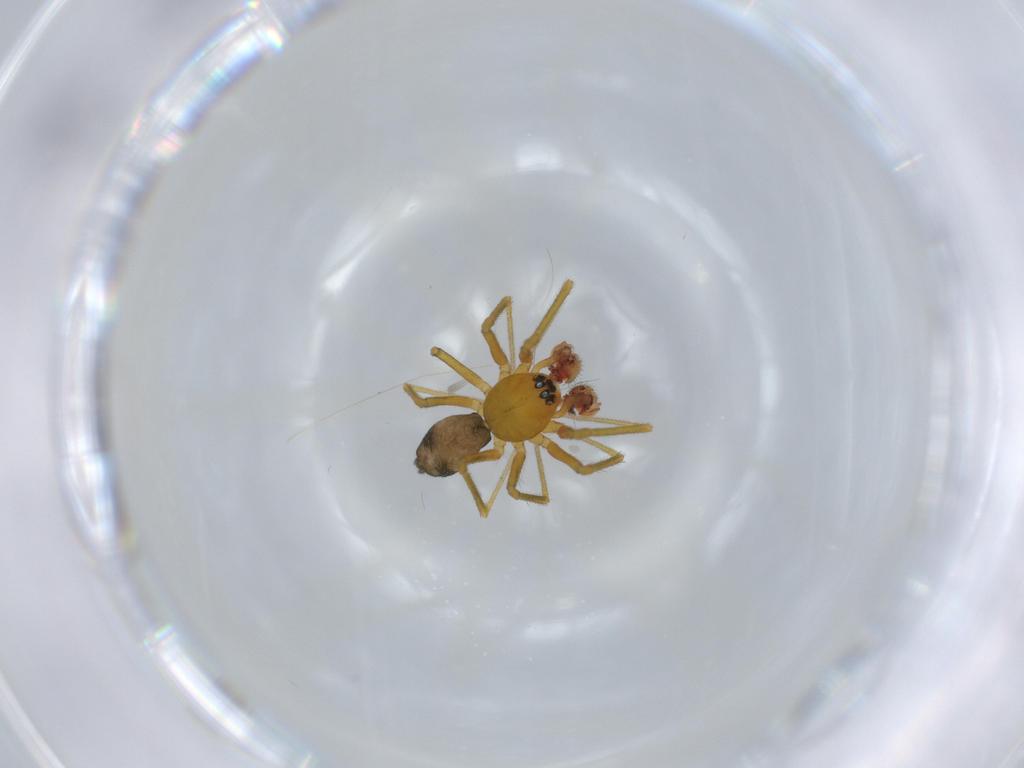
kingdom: Animalia
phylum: Arthropoda
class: Arachnida
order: Araneae
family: Linyphiidae
